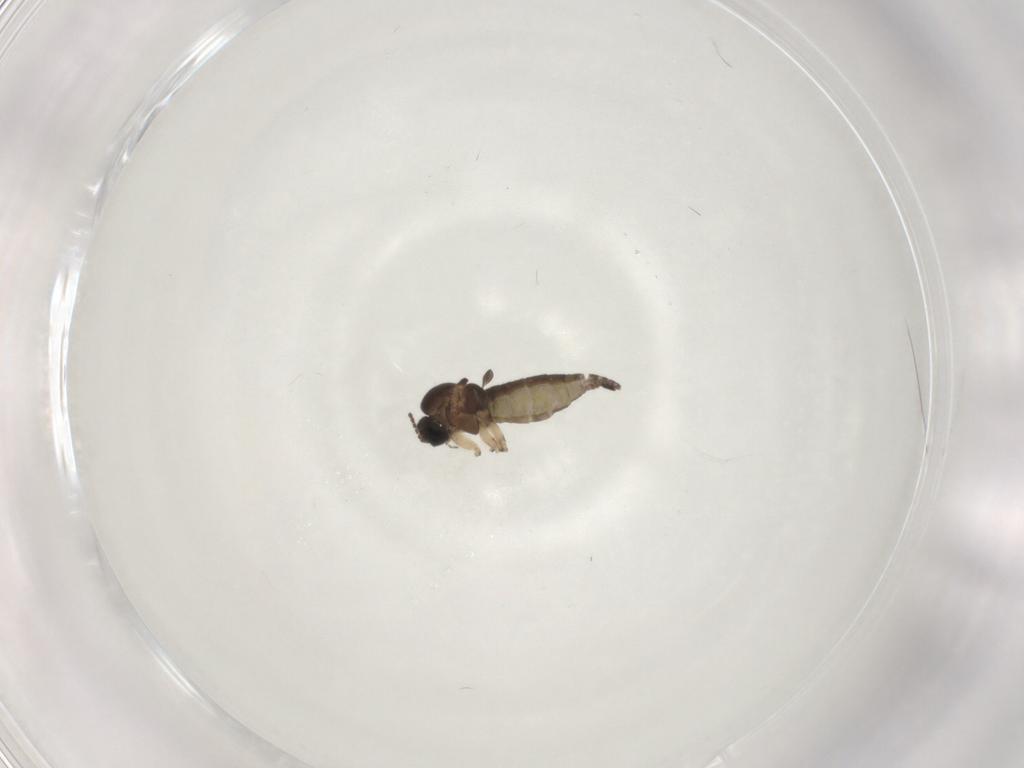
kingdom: Animalia
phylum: Arthropoda
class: Insecta
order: Diptera
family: Sciaridae
